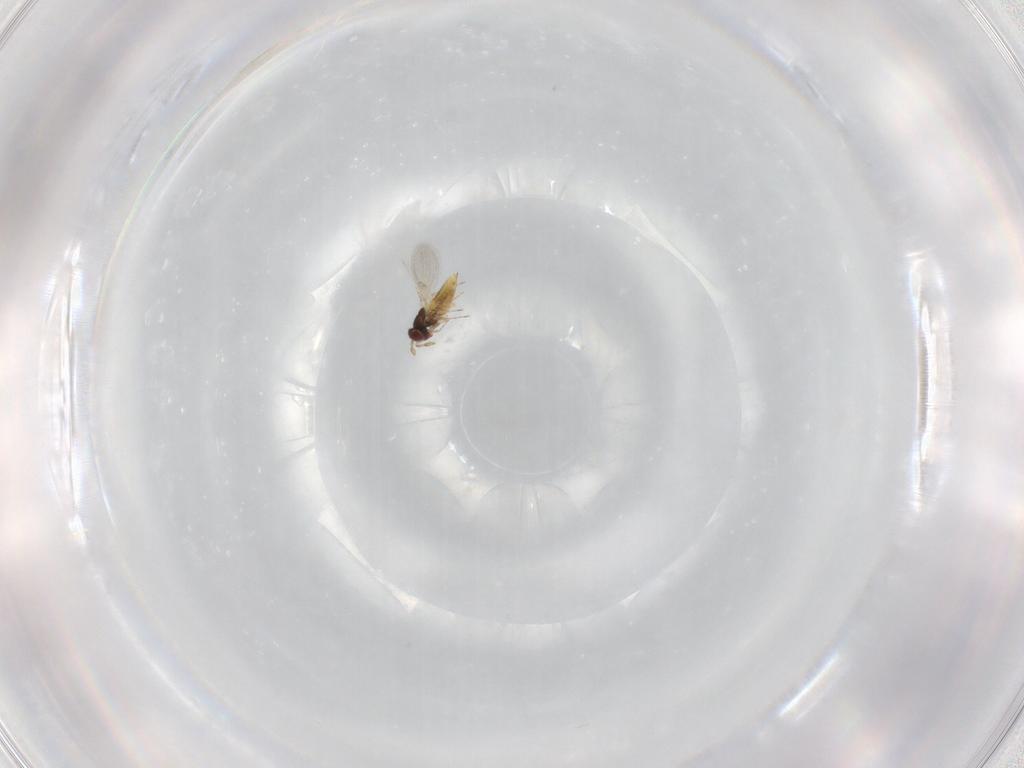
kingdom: Animalia
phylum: Arthropoda
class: Insecta
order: Hymenoptera
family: Trichogrammatidae
